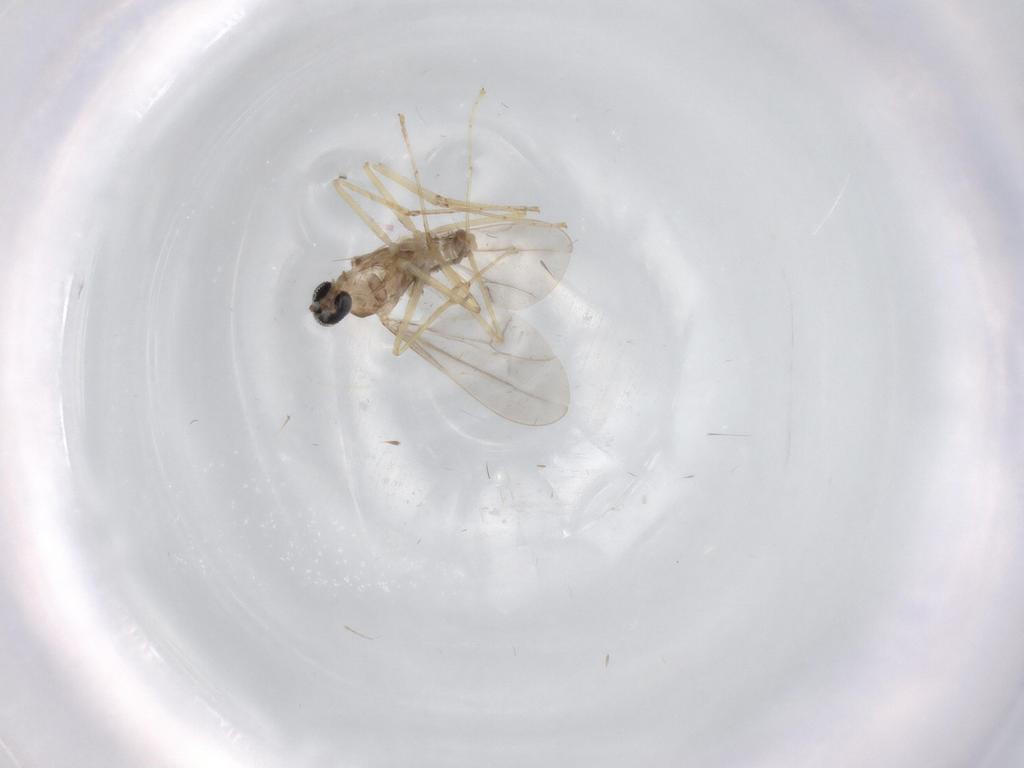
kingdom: Animalia
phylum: Arthropoda
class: Insecta
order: Diptera
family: Cecidomyiidae
